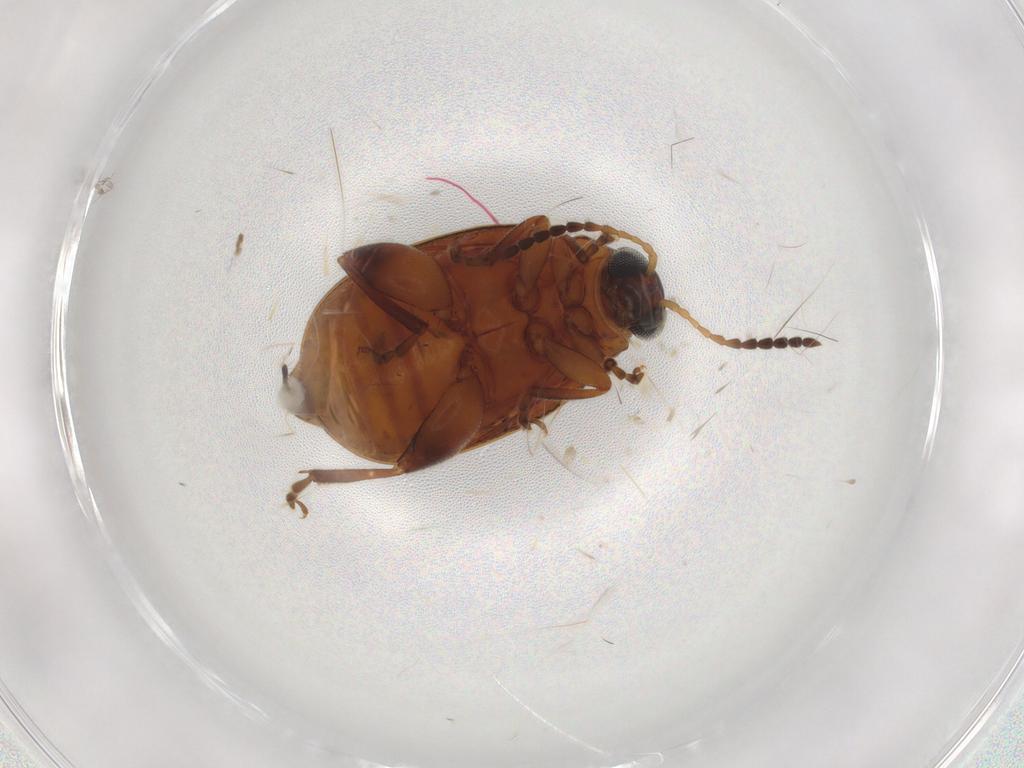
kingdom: Animalia
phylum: Arthropoda
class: Insecta
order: Coleoptera
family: Chrysomelidae
